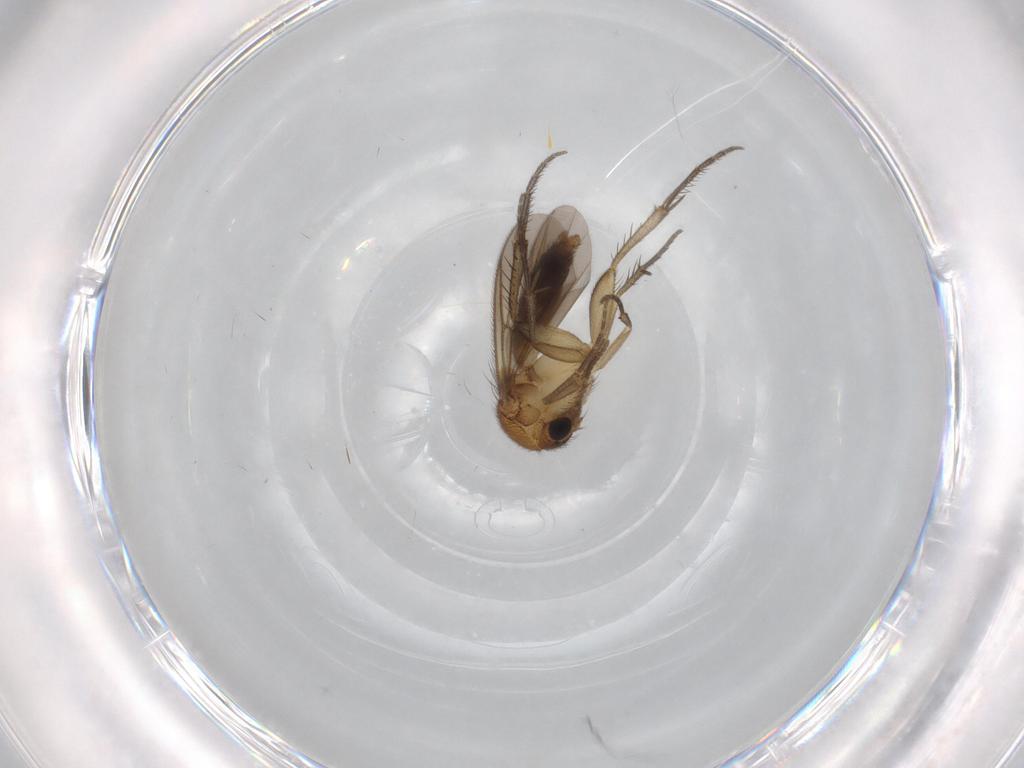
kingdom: Animalia
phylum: Arthropoda
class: Insecta
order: Diptera
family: Sciaridae
